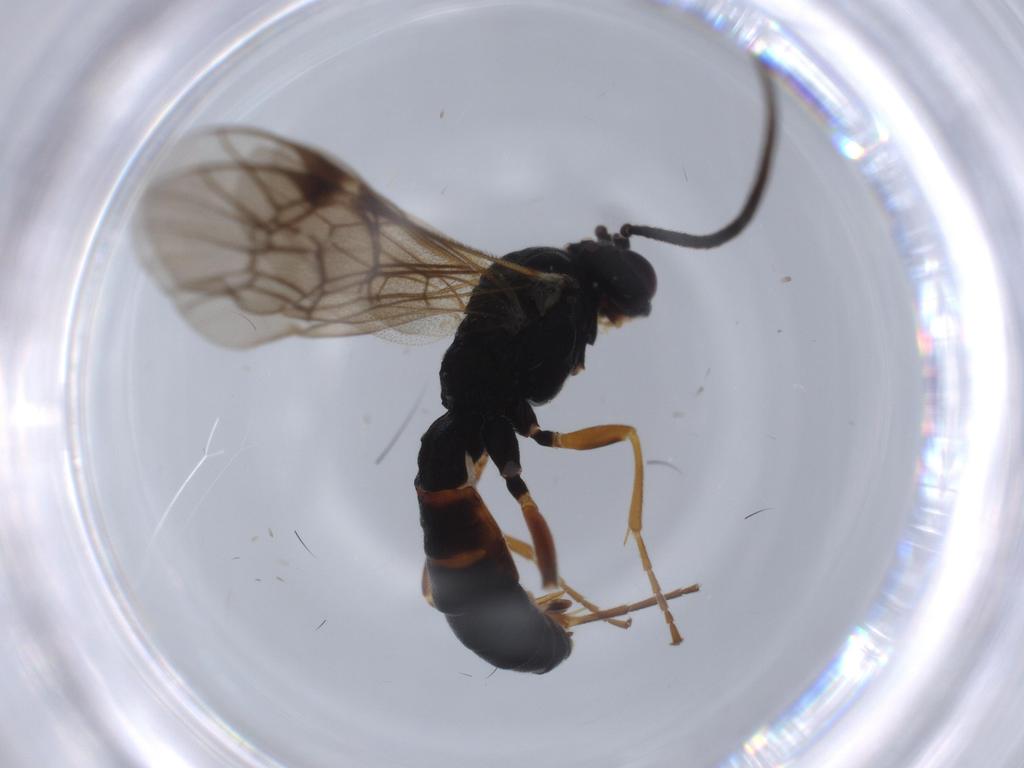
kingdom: Animalia
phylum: Arthropoda
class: Insecta
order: Hymenoptera
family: Ichneumonidae
